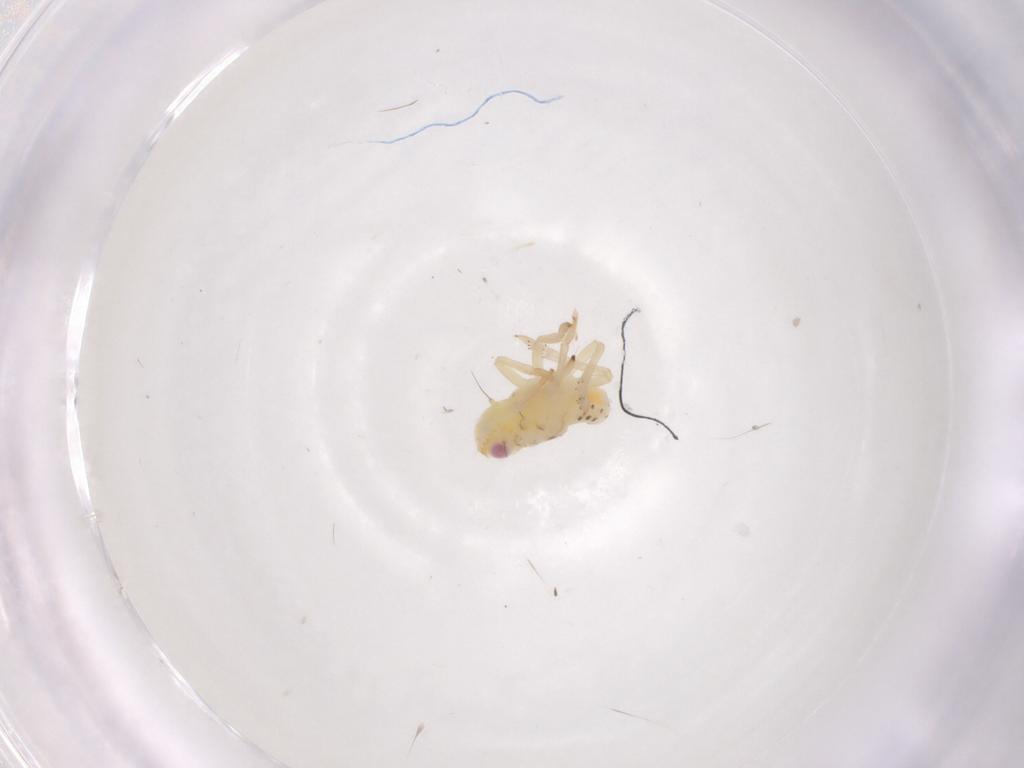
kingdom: Animalia
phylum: Arthropoda
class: Insecta
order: Hemiptera
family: Tropiduchidae
